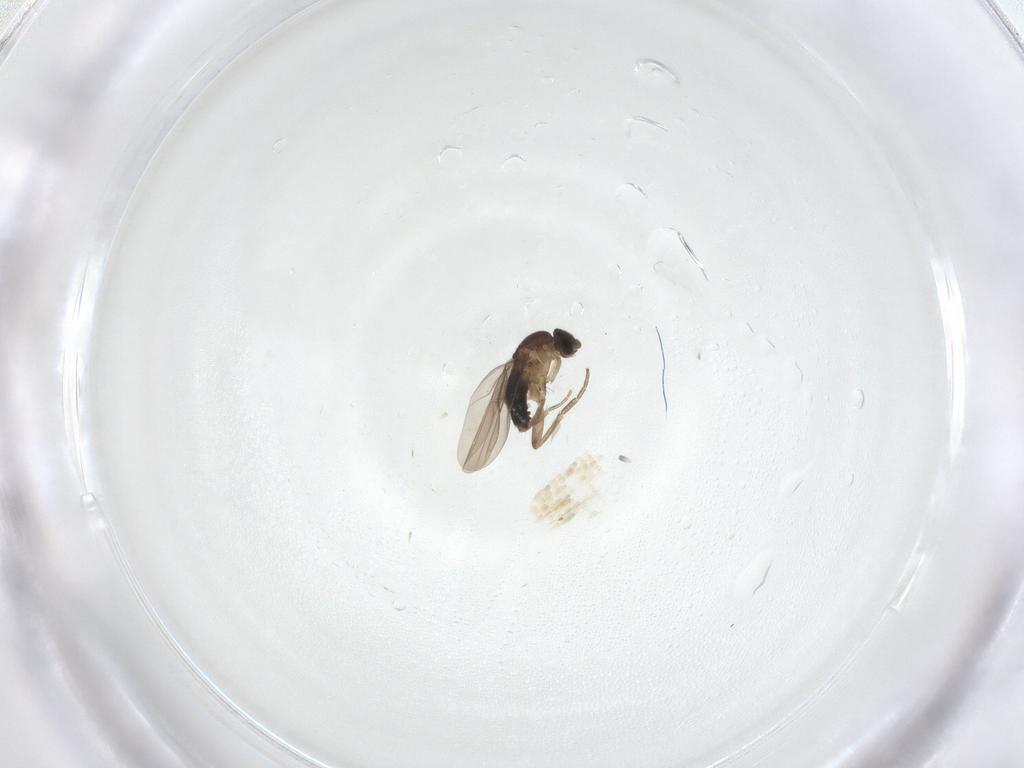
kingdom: Animalia
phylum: Arthropoda
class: Insecta
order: Diptera
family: Phoridae
